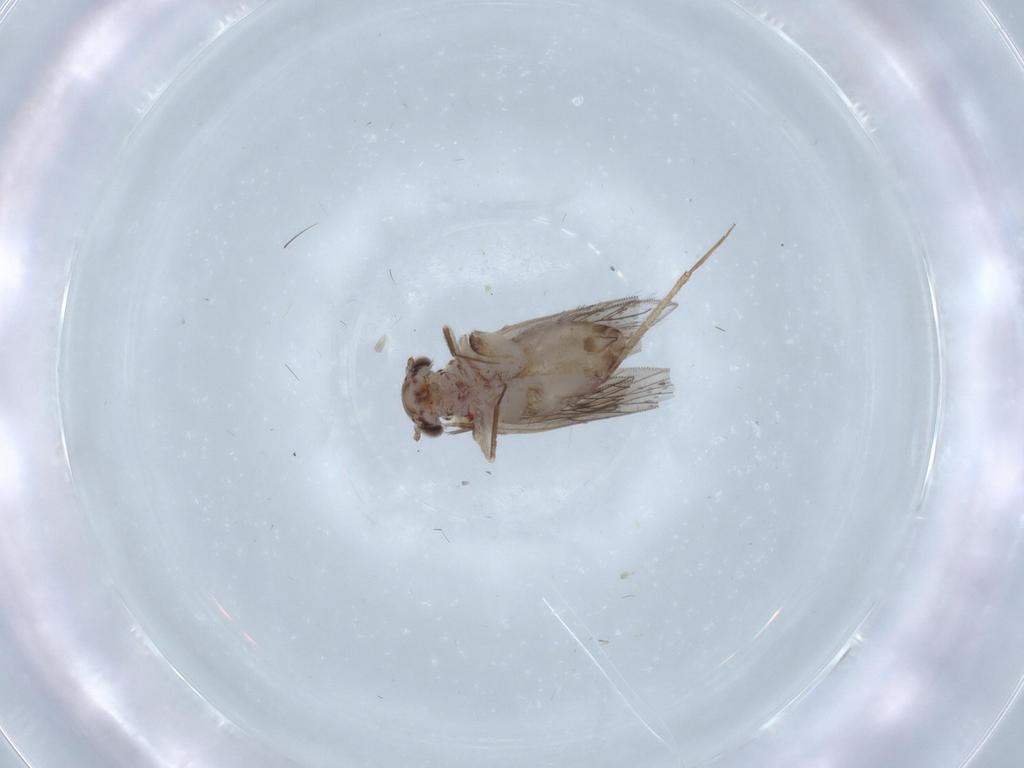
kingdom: Animalia
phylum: Arthropoda
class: Insecta
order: Psocodea
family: Lepidopsocidae
